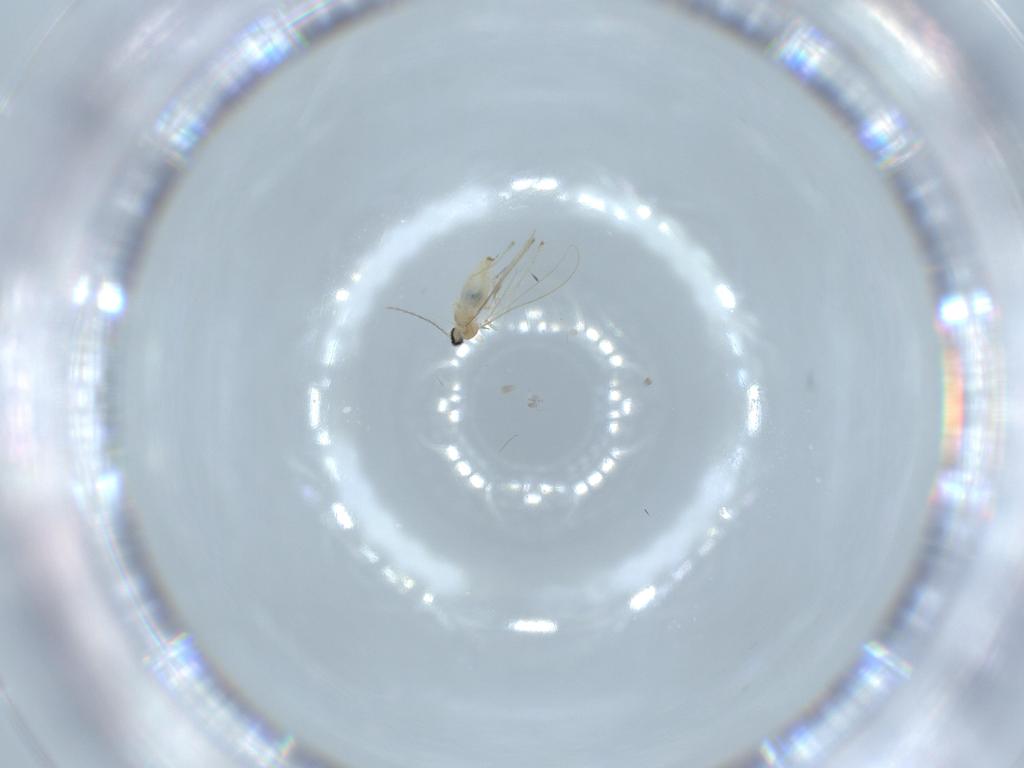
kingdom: Animalia
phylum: Arthropoda
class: Insecta
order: Diptera
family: Cecidomyiidae
